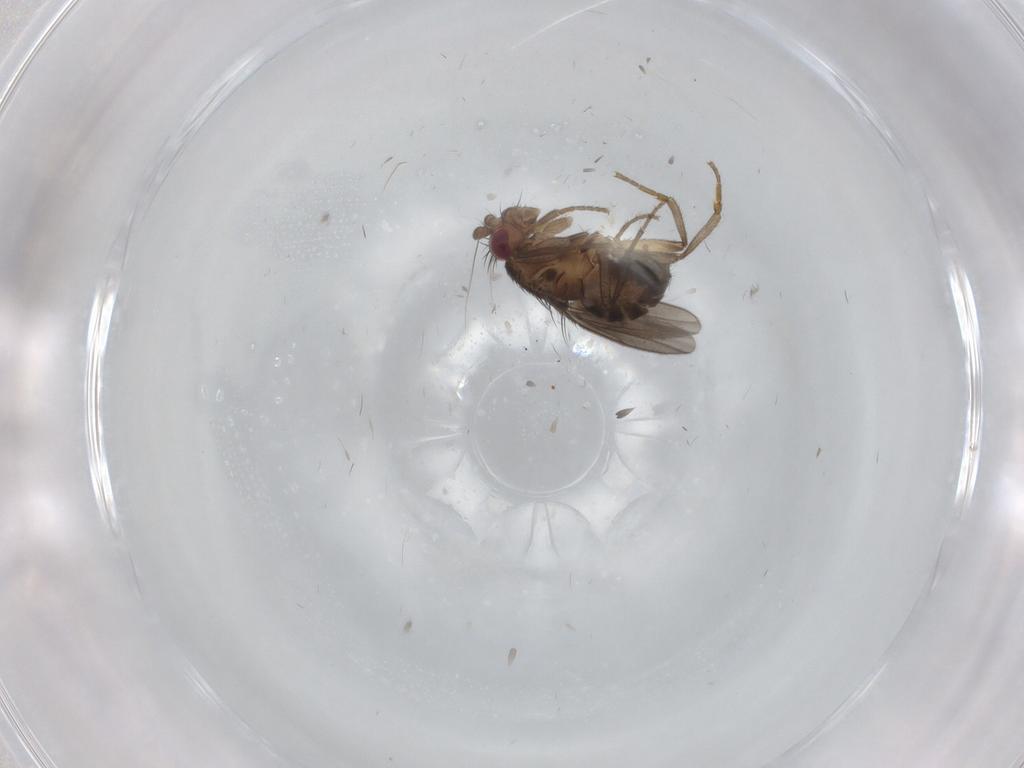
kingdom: Animalia
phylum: Arthropoda
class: Insecta
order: Diptera
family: Sphaeroceridae
